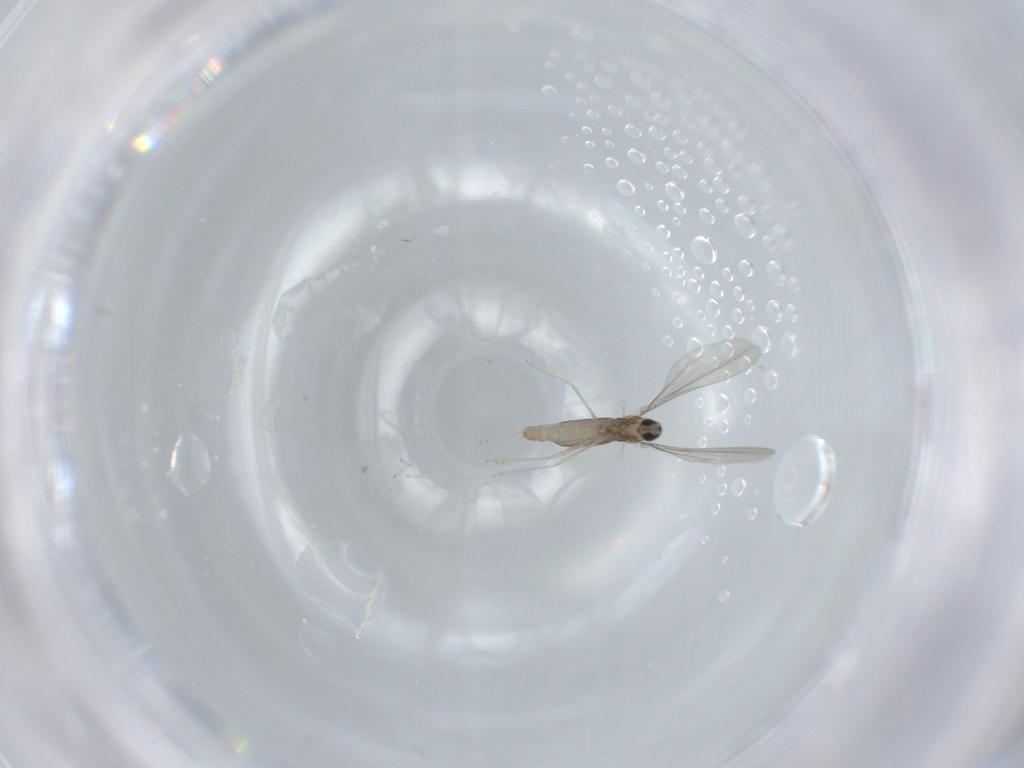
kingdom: Animalia
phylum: Arthropoda
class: Insecta
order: Diptera
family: Cecidomyiidae
